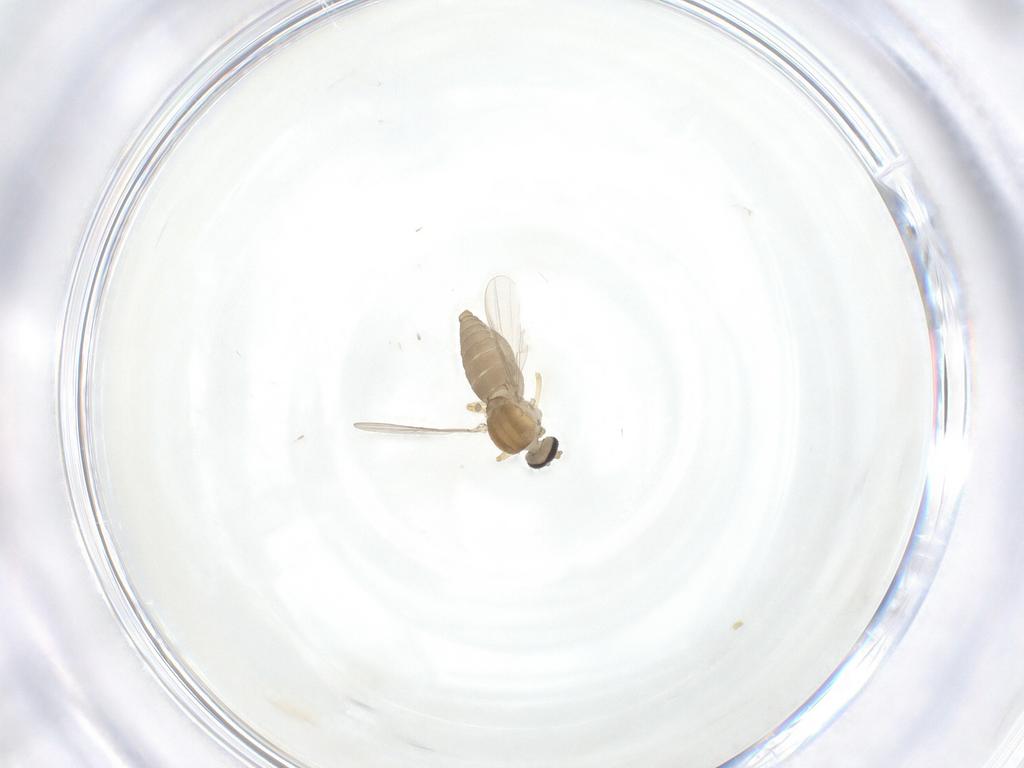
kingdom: Animalia
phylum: Arthropoda
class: Insecta
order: Diptera
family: Ceratopogonidae
